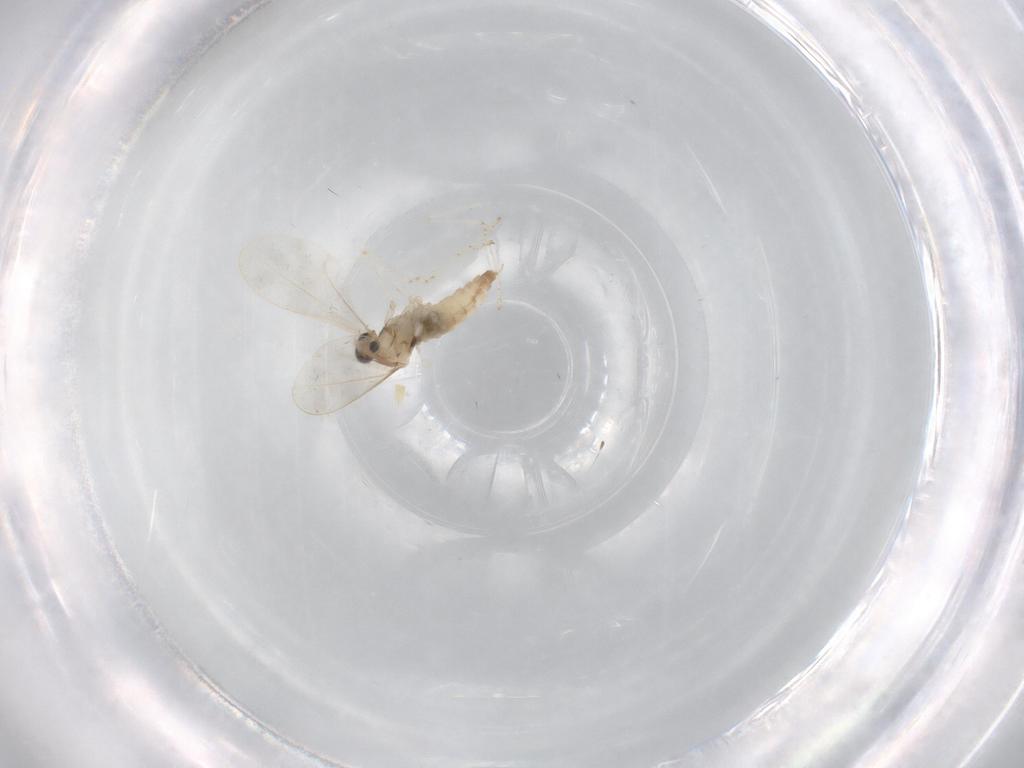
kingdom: Animalia
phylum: Arthropoda
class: Insecta
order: Diptera
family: Cecidomyiidae
